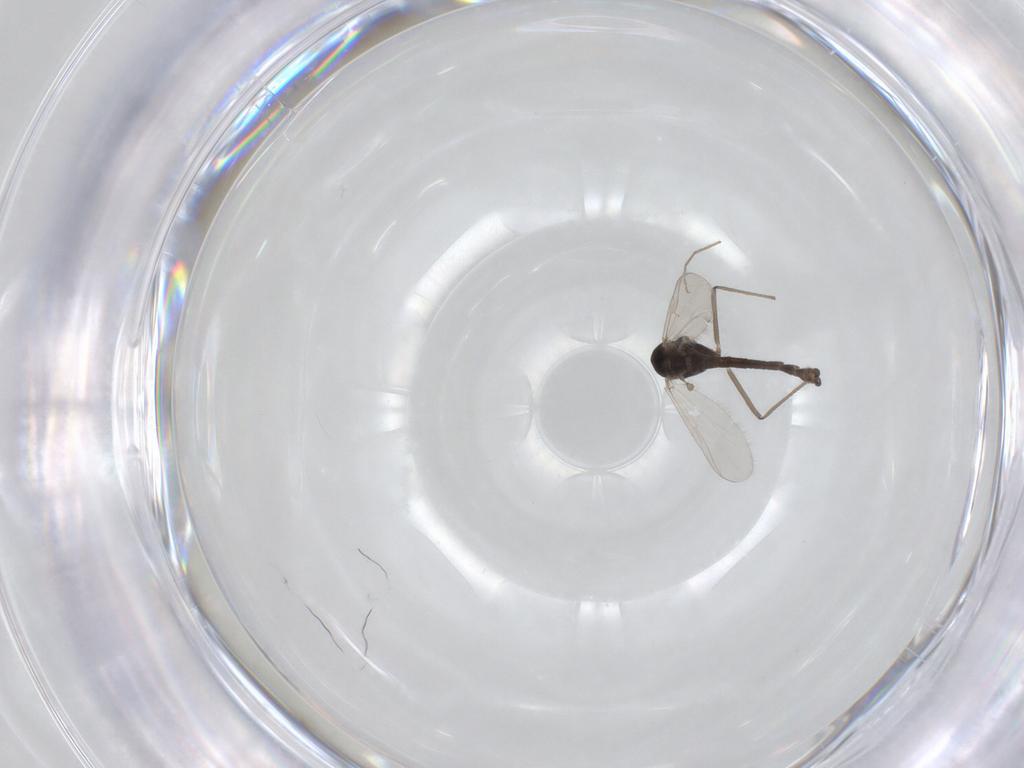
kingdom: Animalia
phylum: Arthropoda
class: Insecta
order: Diptera
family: Chironomidae
